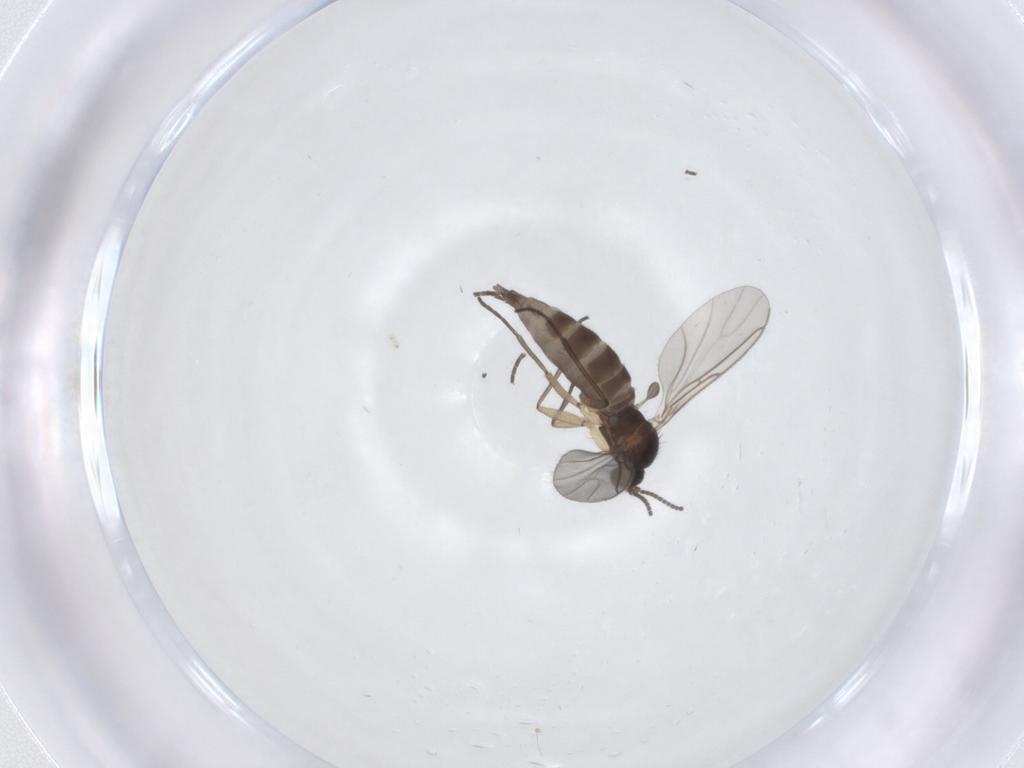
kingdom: Animalia
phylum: Arthropoda
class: Insecta
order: Diptera
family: Sciaridae
